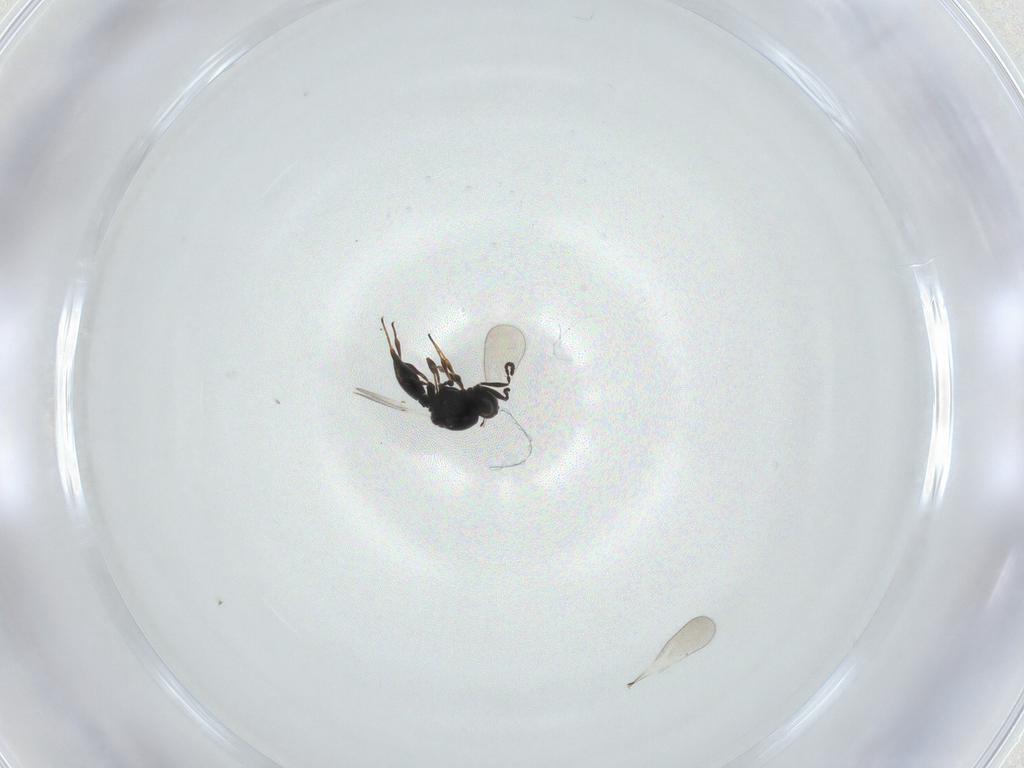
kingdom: Animalia
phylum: Arthropoda
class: Insecta
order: Hymenoptera
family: Platygastridae
